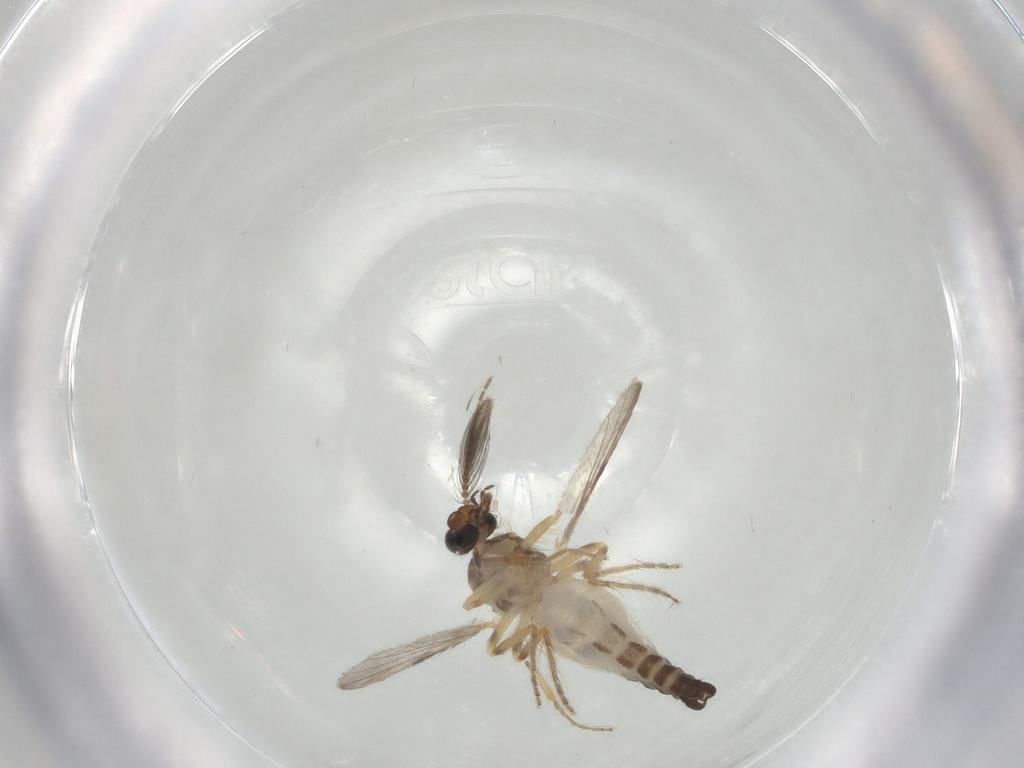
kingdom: Animalia
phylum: Arthropoda
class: Insecta
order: Diptera
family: Ceratopogonidae
